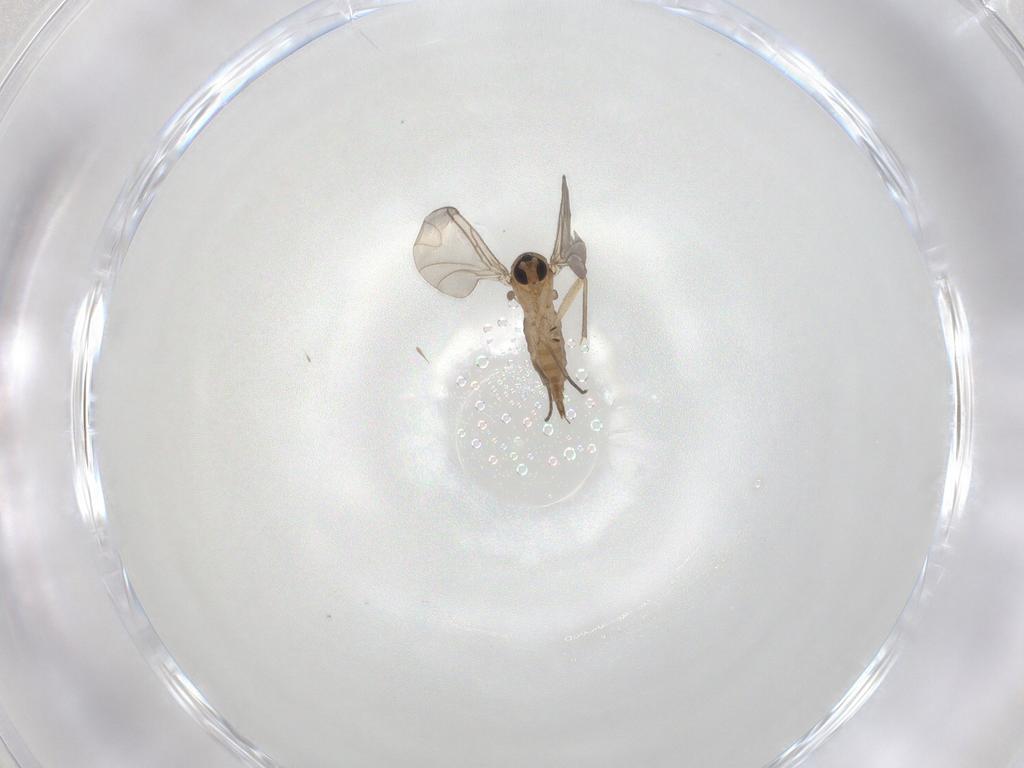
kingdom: Animalia
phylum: Arthropoda
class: Insecta
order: Diptera
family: Sciaridae
